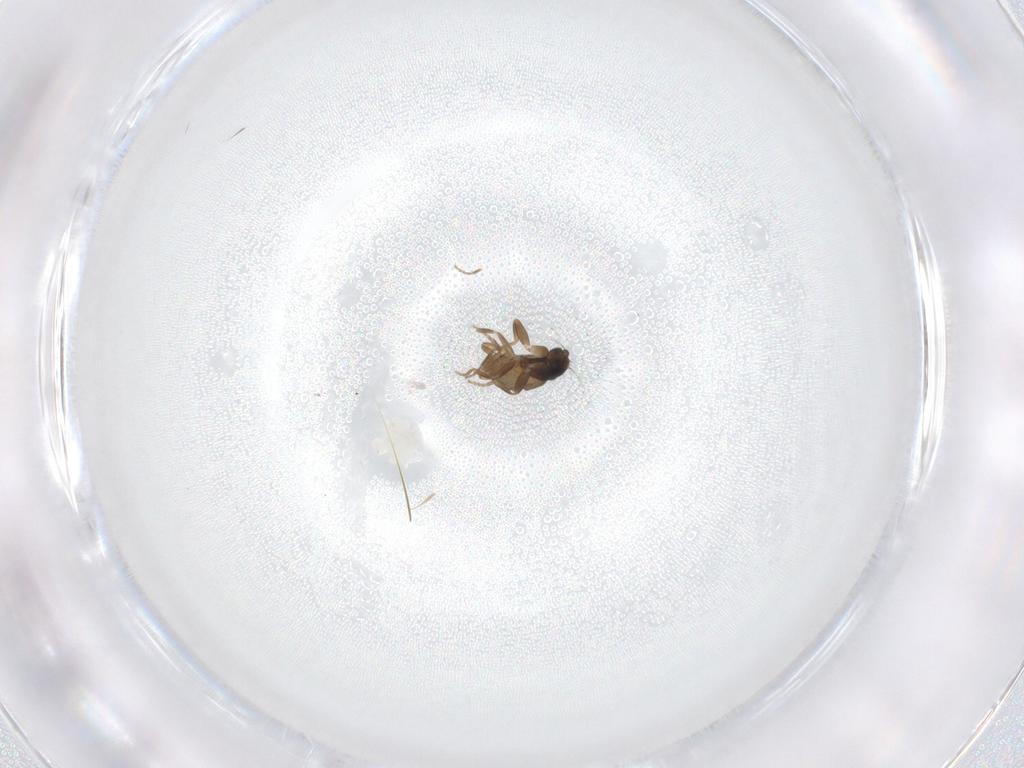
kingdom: Animalia
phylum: Arthropoda
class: Insecta
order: Diptera
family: Phoridae
